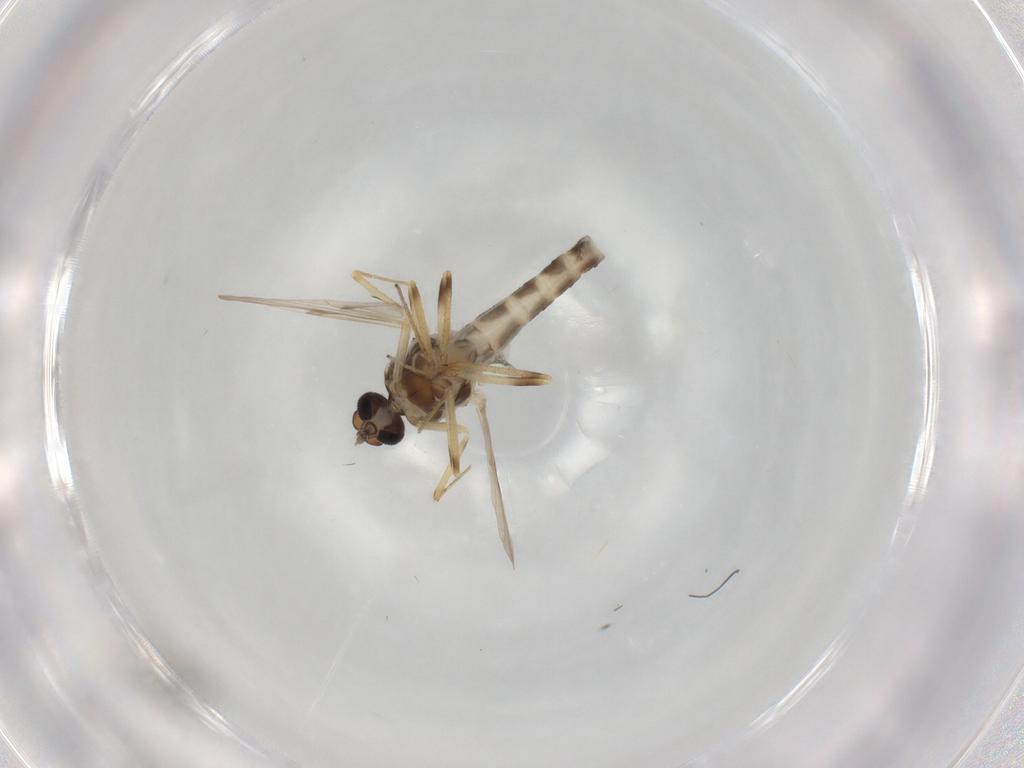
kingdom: Animalia
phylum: Arthropoda
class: Insecta
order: Diptera
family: Ceratopogonidae
